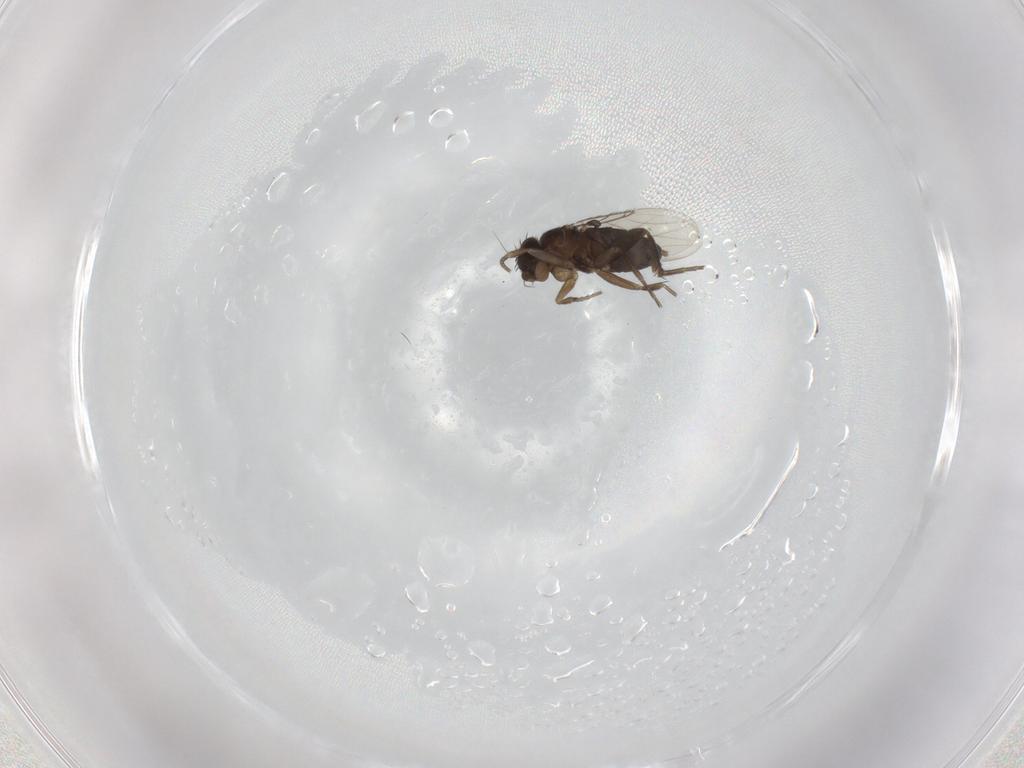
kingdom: Animalia
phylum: Arthropoda
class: Insecta
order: Diptera
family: Phoridae
